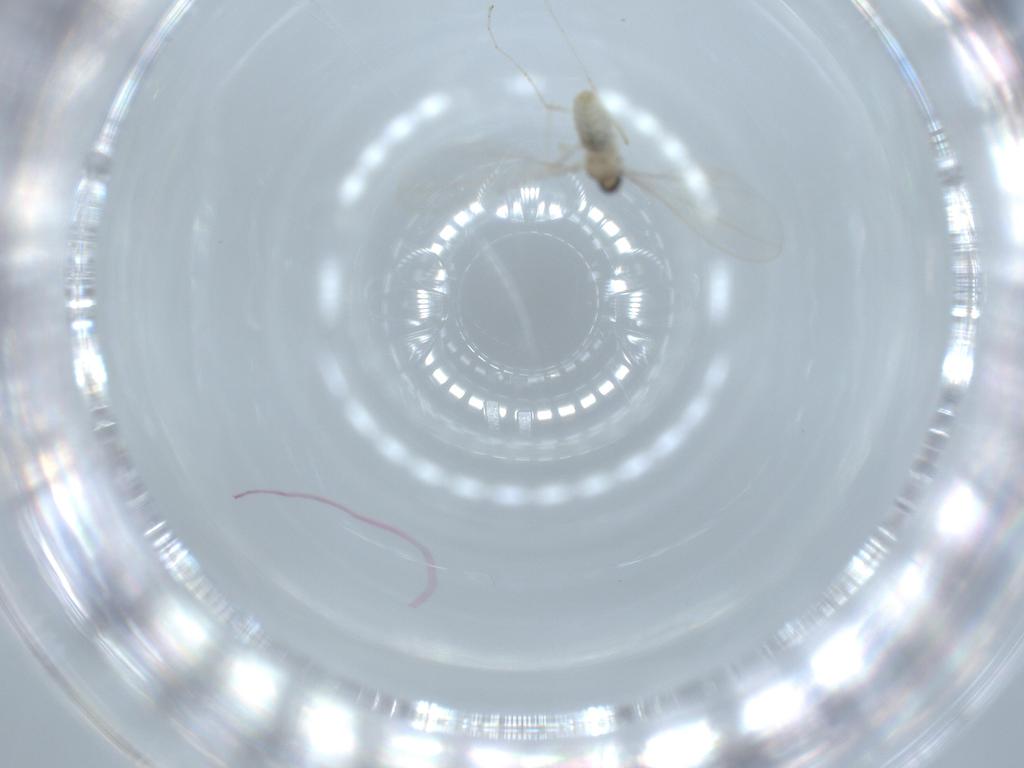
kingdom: Animalia
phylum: Arthropoda
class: Insecta
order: Diptera
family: Cecidomyiidae
